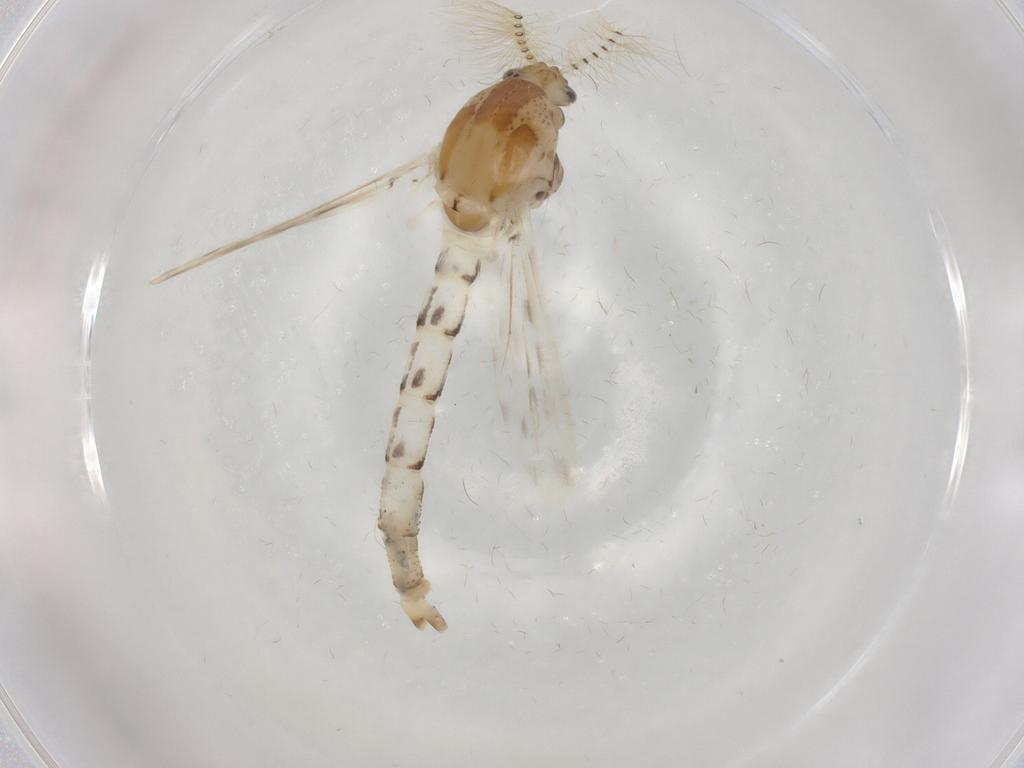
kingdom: Animalia
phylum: Arthropoda
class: Insecta
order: Diptera
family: Chaoboridae
